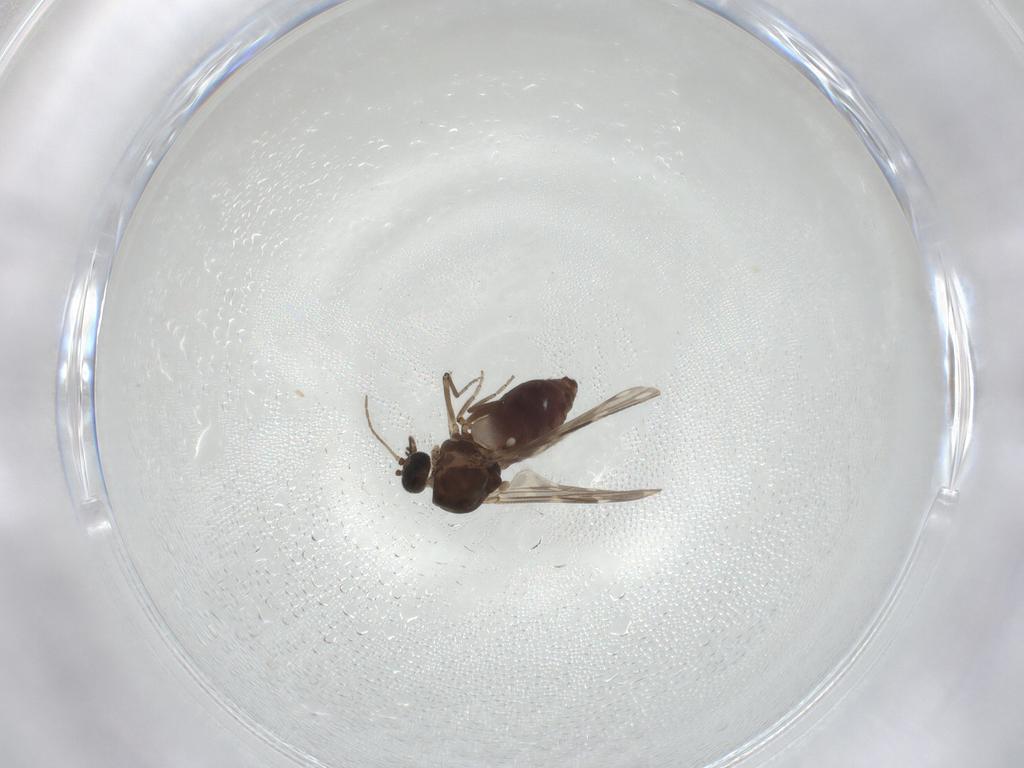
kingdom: Animalia
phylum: Arthropoda
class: Insecta
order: Diptera
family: Ceratopogonidae
